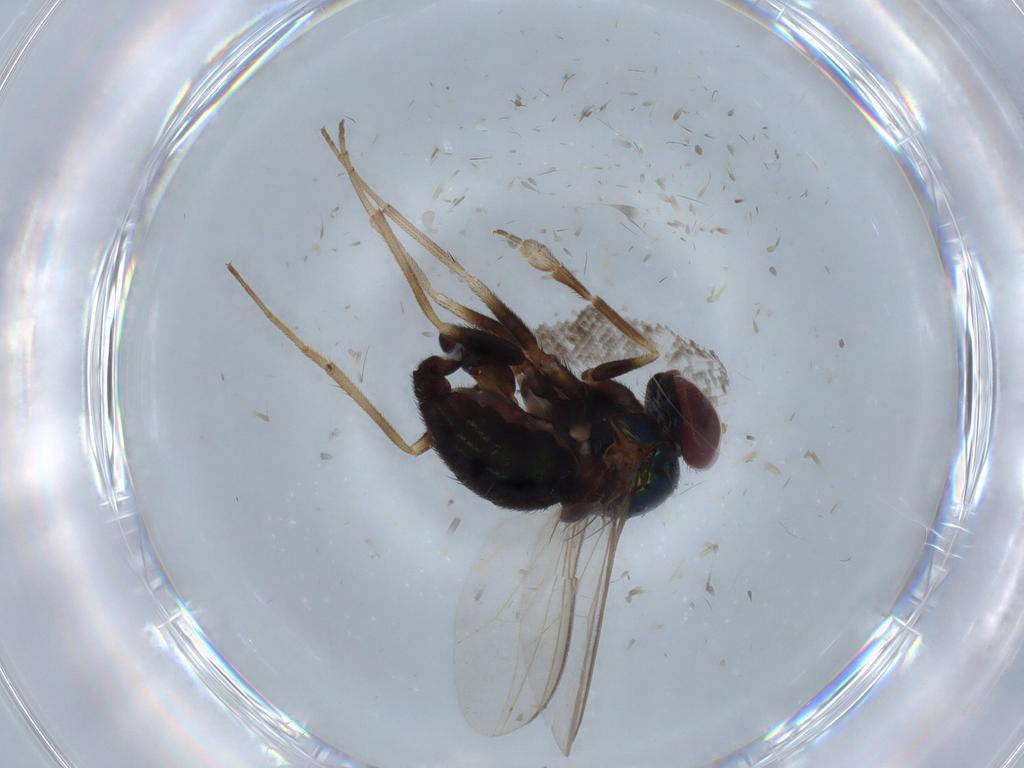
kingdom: Animalia
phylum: Arthropoda
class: Insecta
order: Diptera
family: Dolichopodidae
